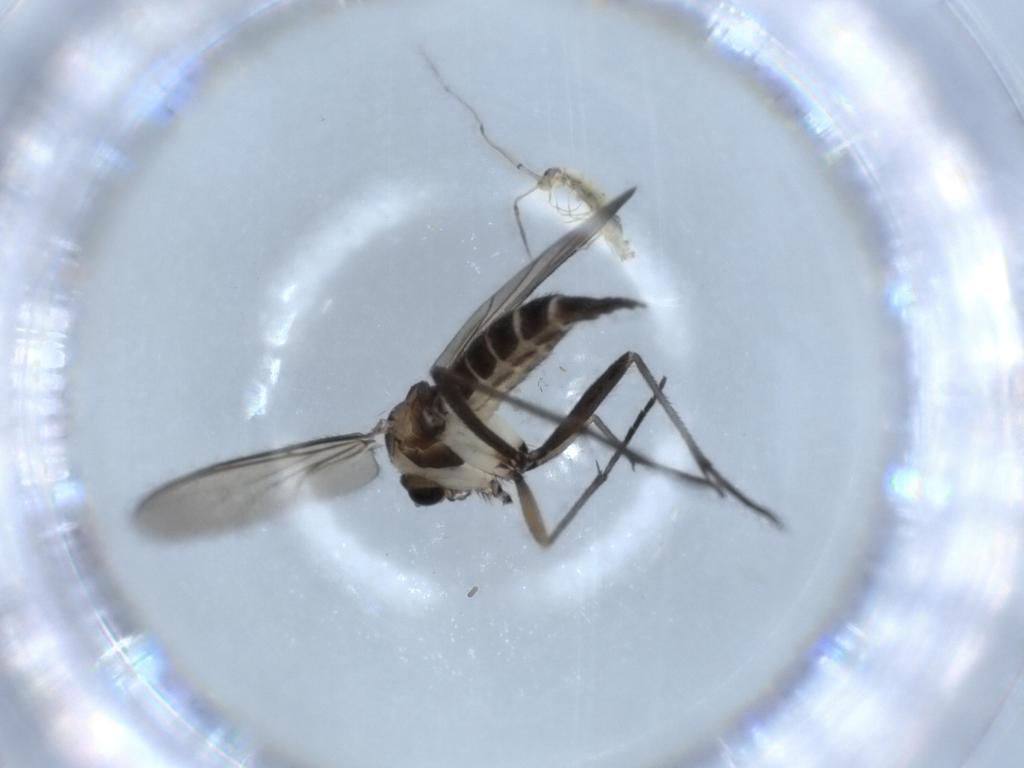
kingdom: Animalia
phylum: Arthropoda
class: Collembola
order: Entomobryomorpha
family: Entomobryidae
